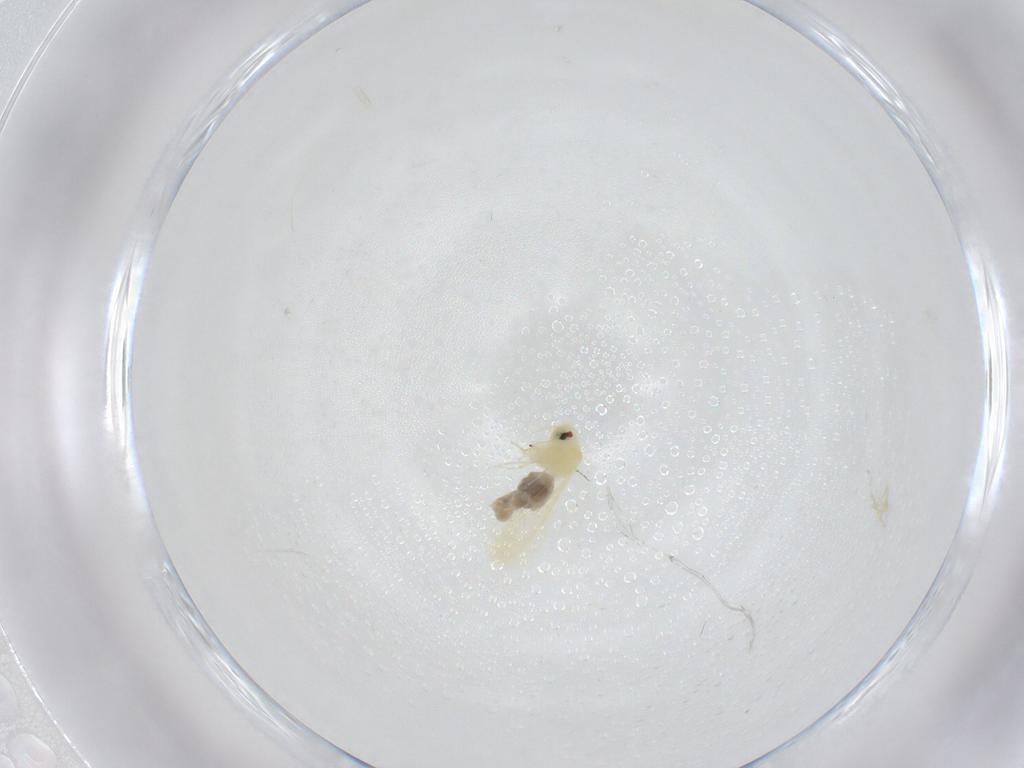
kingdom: Animalia
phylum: Arthropoda
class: Insecta
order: Hemiptera
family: Aleyrodidae
